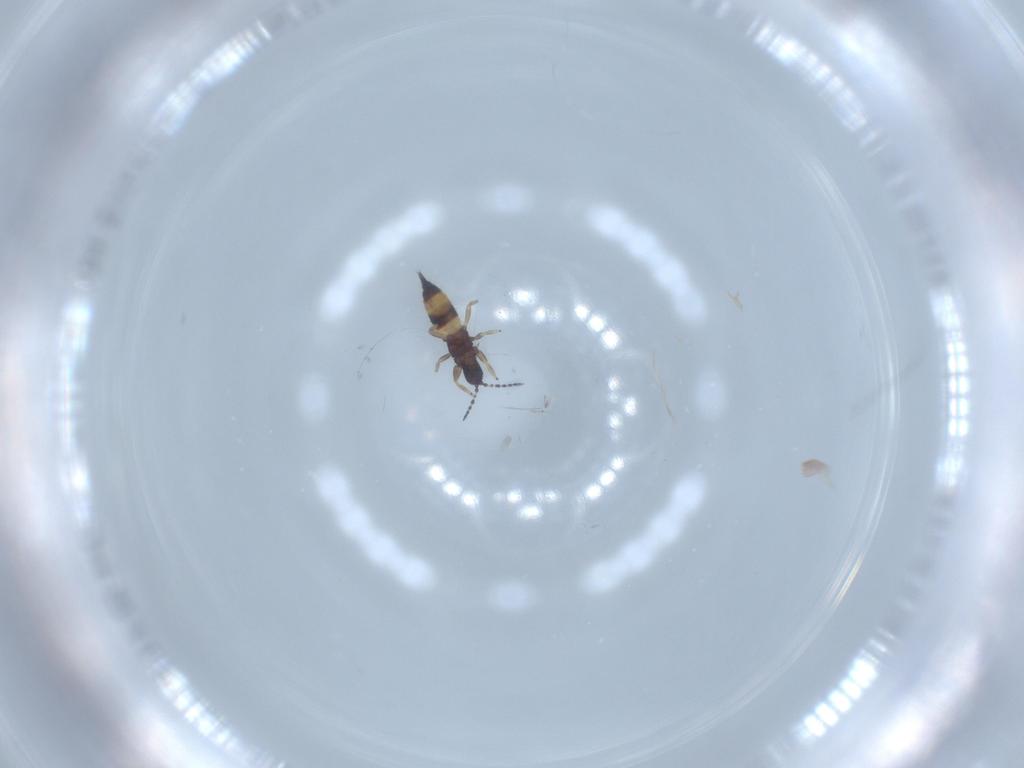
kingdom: Animalia
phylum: Arthropoda
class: Insecta
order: Thysanoptera
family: Phlaeothripidae
